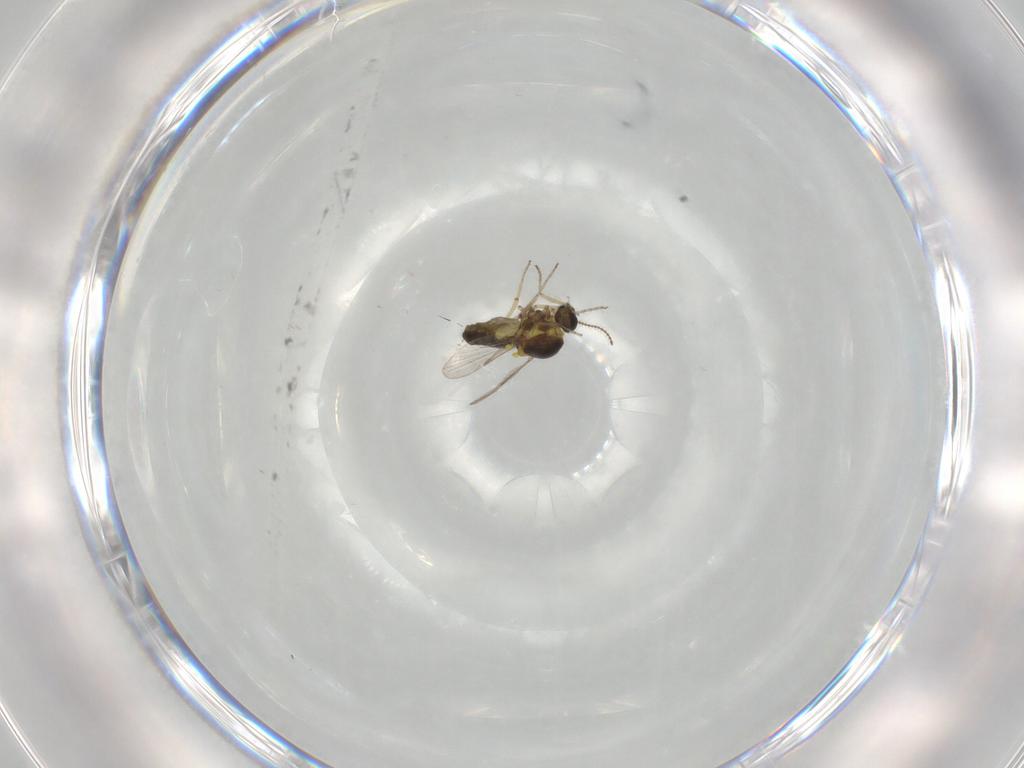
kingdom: Animalia
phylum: Arthropoda
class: Insecta
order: Diptera
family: Ceratopogonidae
